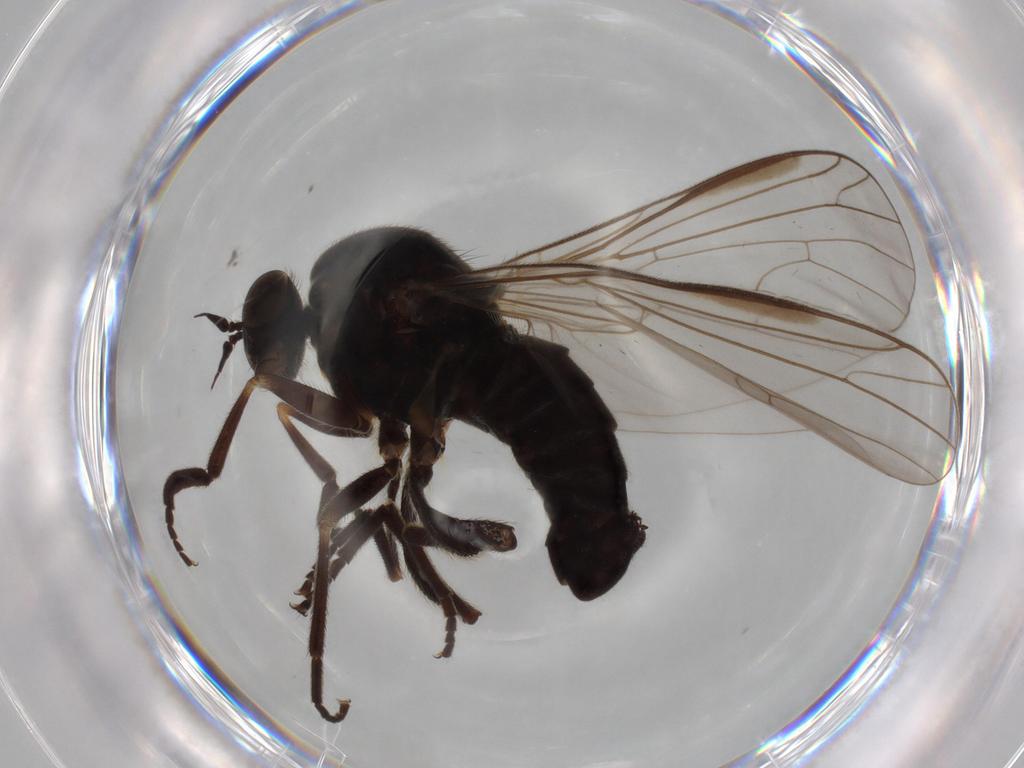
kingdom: Animalia
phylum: Arthropoda
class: Insecta
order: Diptera
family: Empididae
